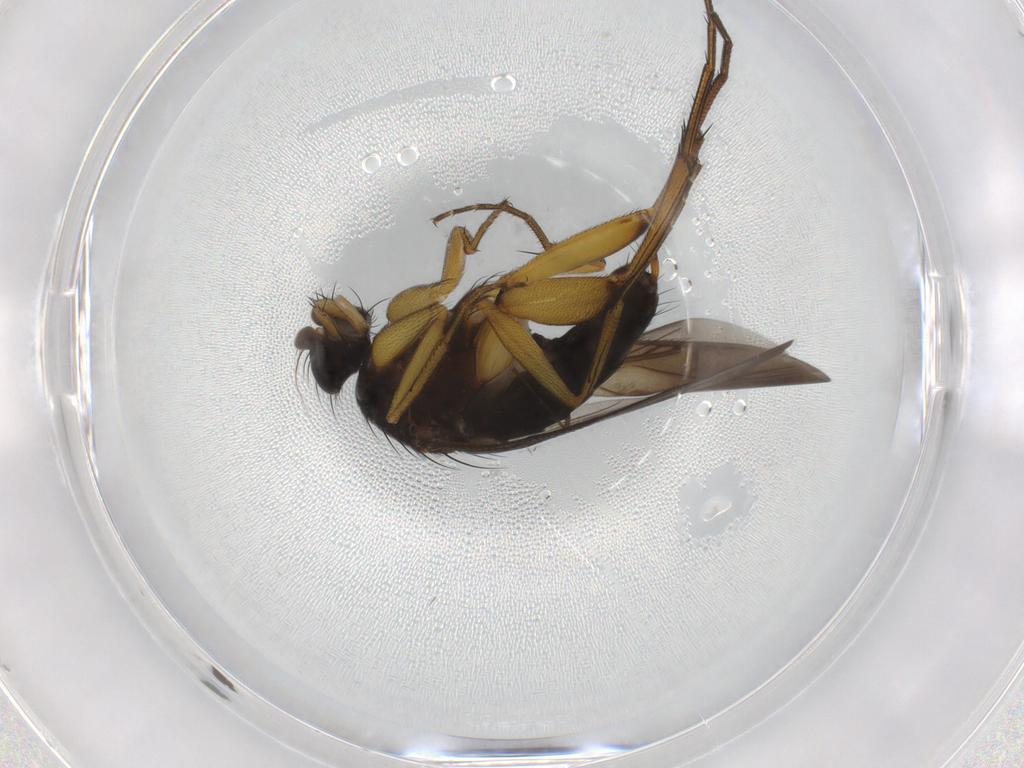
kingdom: Animalia
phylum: Arthropoda
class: Insecta
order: Diptera
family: Phoridae
